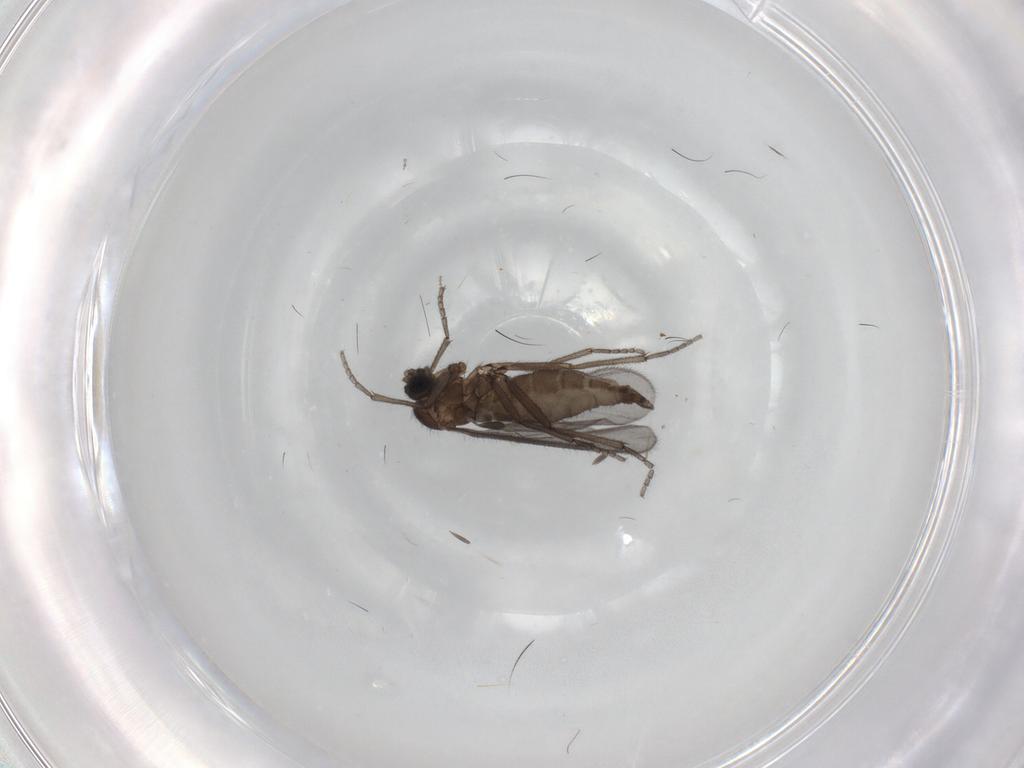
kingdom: Animalia
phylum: Arthropoda
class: Insecta
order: Diptera
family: Sciaridae
